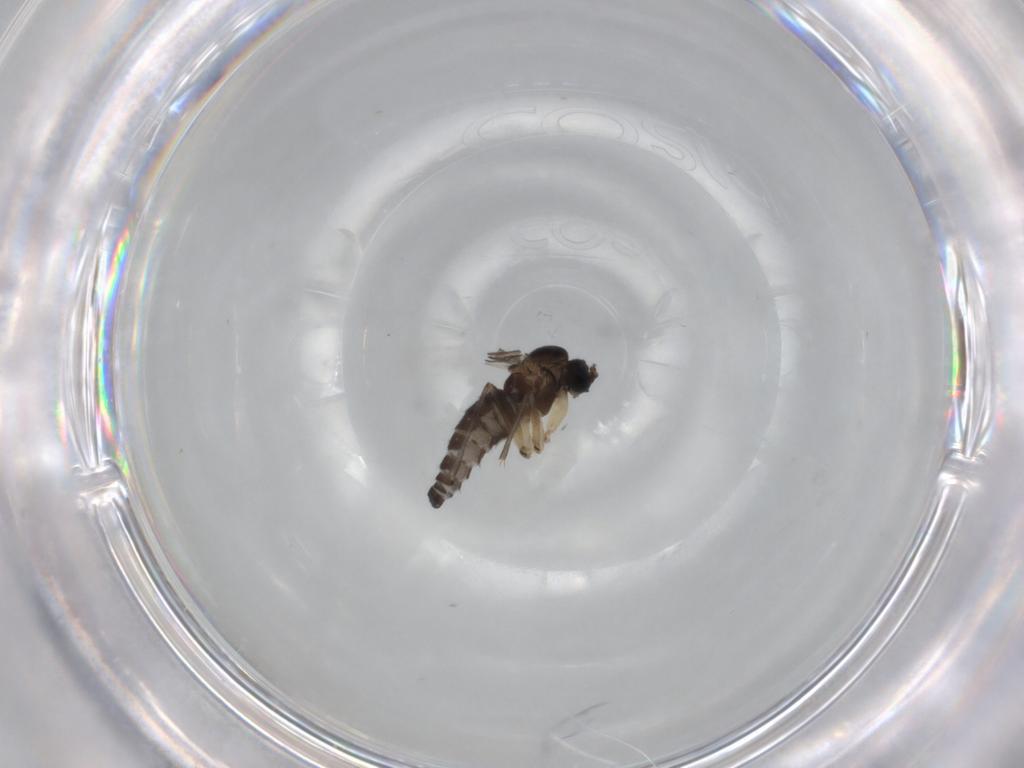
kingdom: Animalia
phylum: Arthropoda
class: Insecta
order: Diptera
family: Sciaridae
